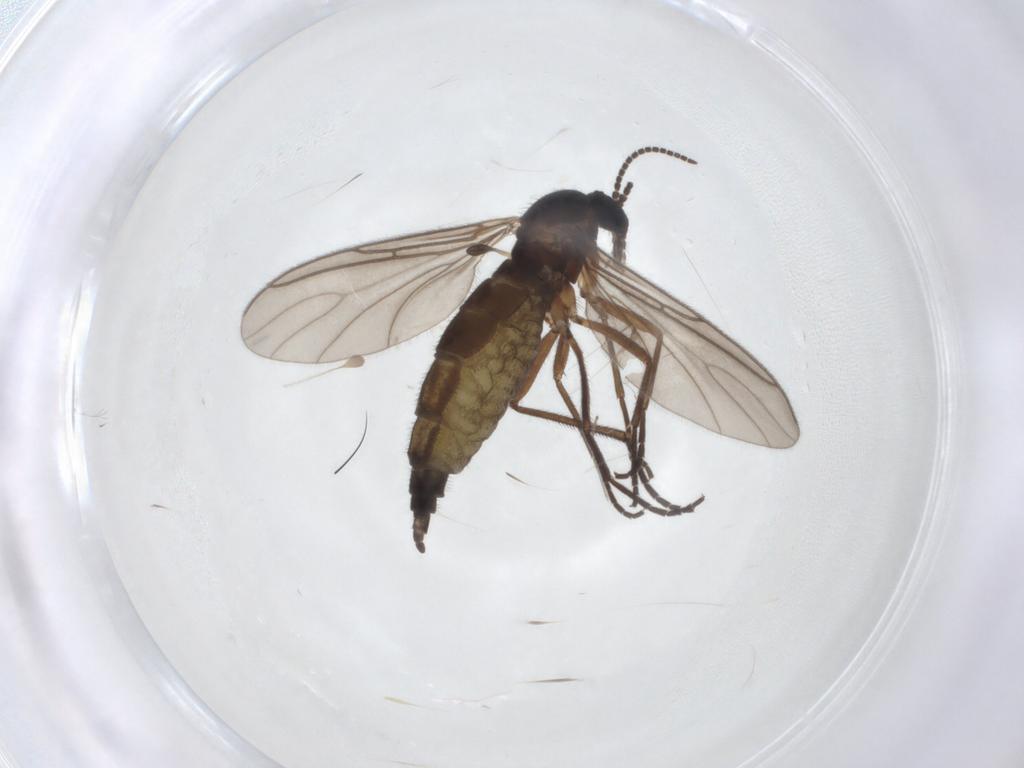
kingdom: Animalia
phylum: Arthropoda
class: Insecta
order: Diptera
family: Sciaridae
